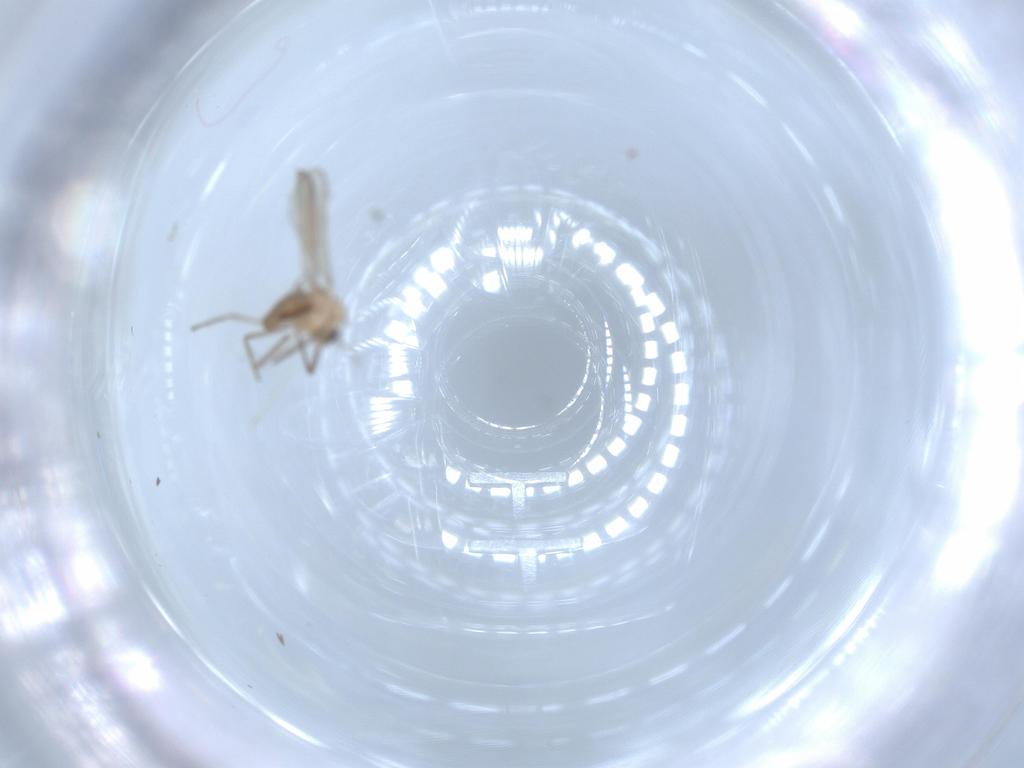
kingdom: Animalia
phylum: Arthropoda
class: Insecta
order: Diptera
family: Chironomidae
